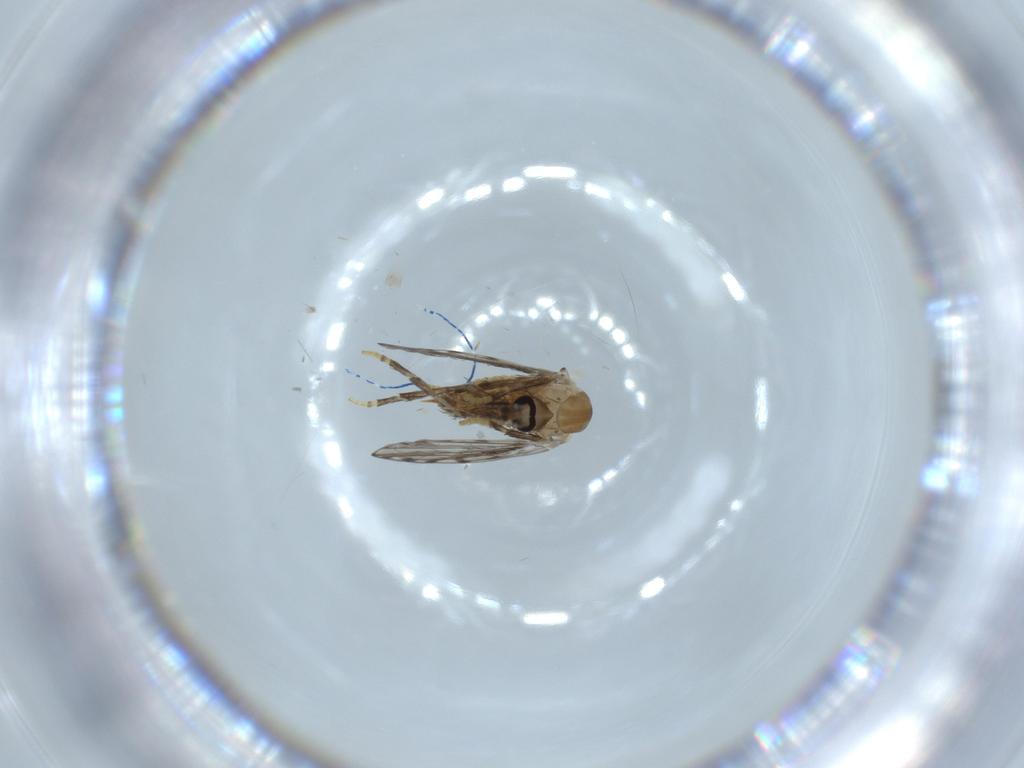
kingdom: Animalia
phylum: Arthropoda
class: Insecta
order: Diptera
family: Psychodidae
